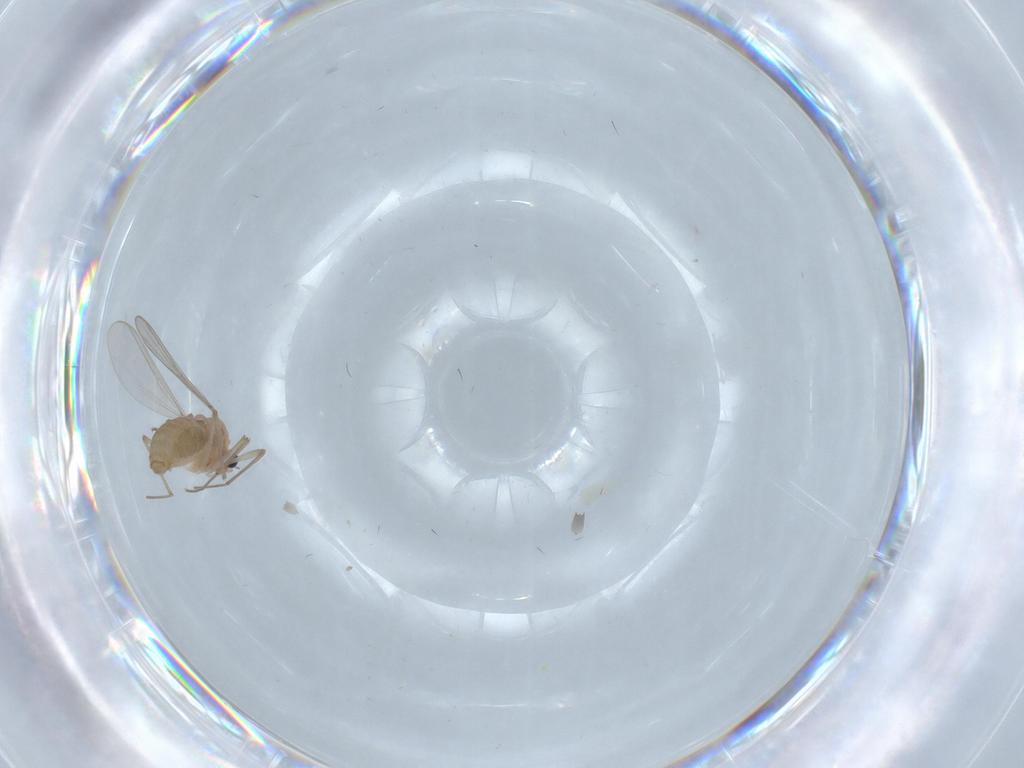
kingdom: Animalia
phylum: Arthropoda
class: Insecta
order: Diptera
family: Chironomidae
